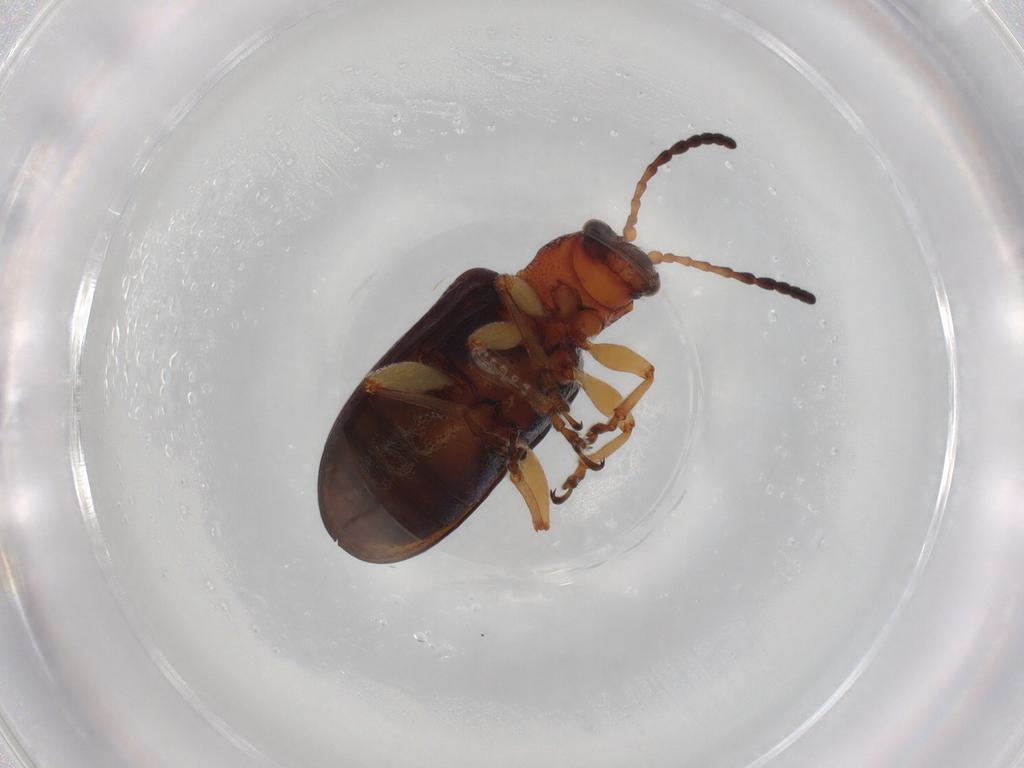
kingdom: Animalia
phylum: Arthropoda
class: Insecta
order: Coleoptera
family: Chrysomelidae
